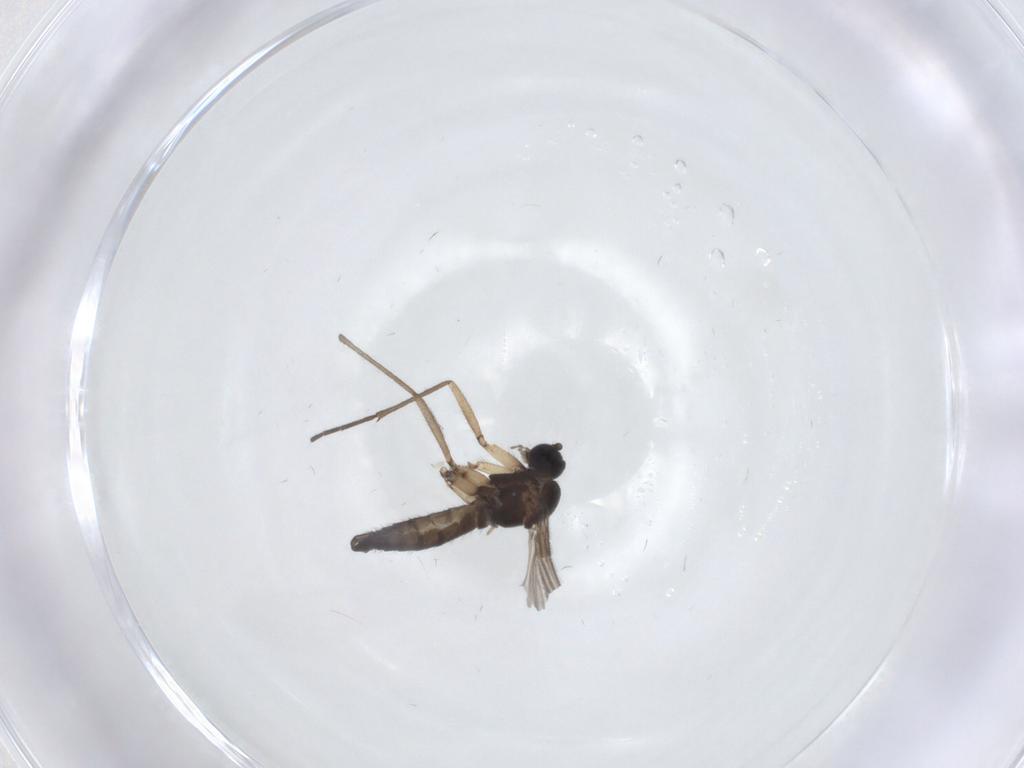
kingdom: Animalia
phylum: Arthropoda
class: Insecta
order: Diptera
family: Sciaridae
